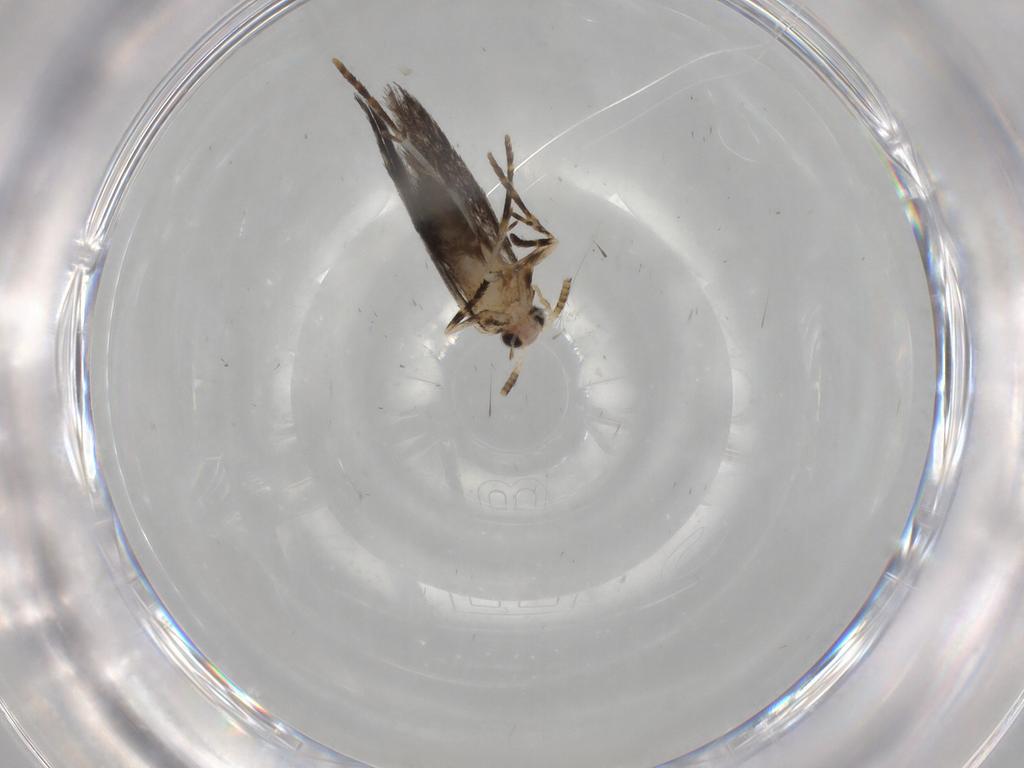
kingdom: Animalia
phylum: Arthropoda
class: Insecta
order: Lepidoptera
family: Tineidae
